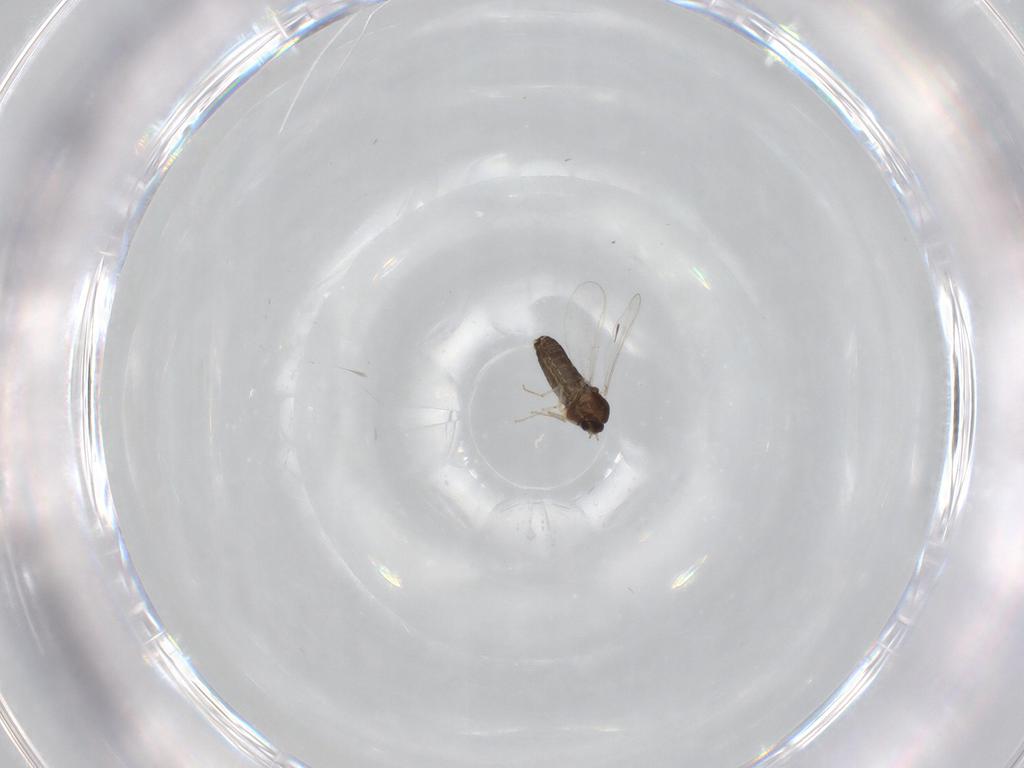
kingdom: Animalia
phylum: Arthropoda
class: Insecta
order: Diptera
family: Chironomidae
